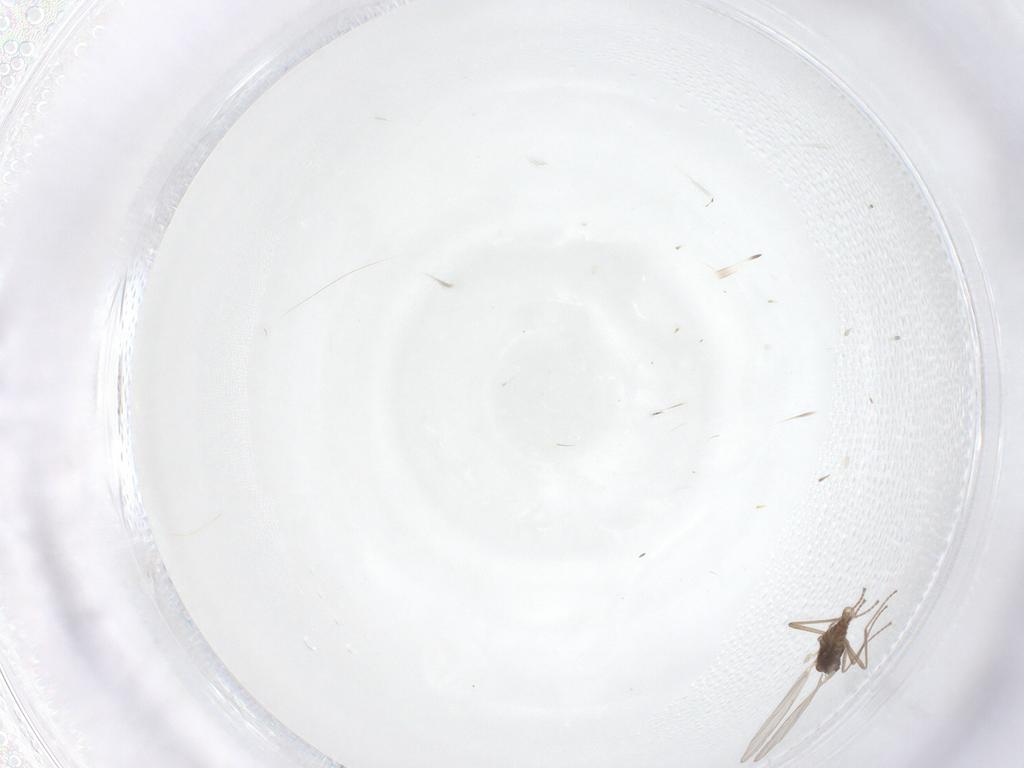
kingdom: Animalia
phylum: Arthropoda
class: Insecta
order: Diptera
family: Cecidomyiidae
